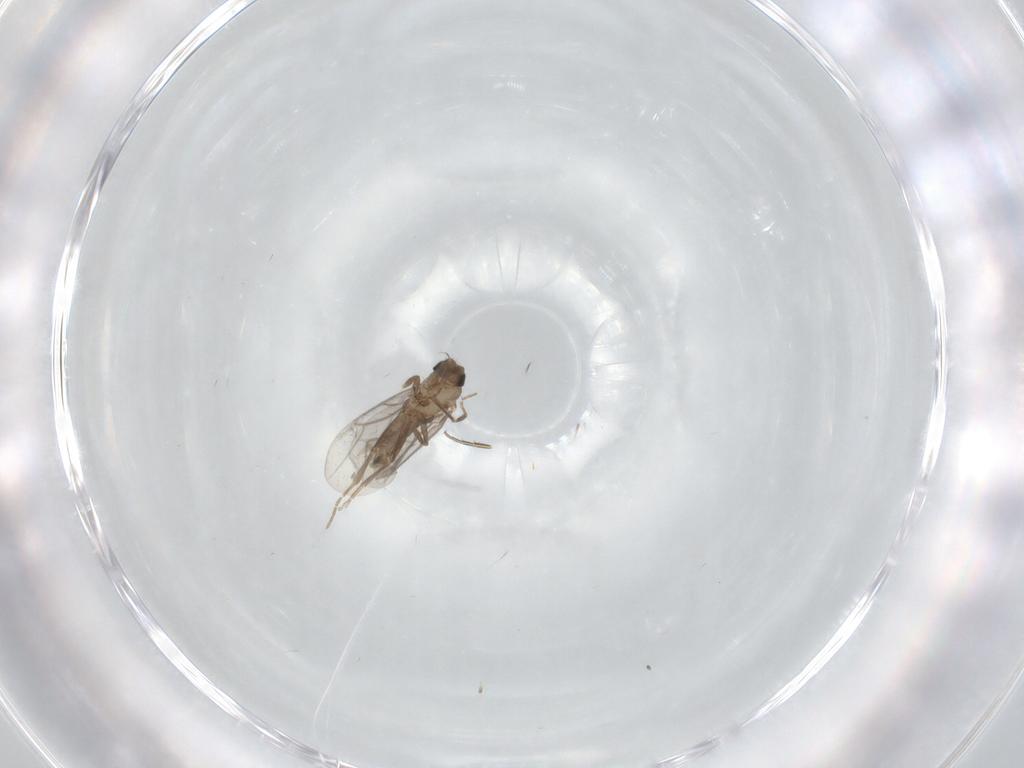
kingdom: Animalia
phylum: Arthropoda
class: Insecta
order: Diptera
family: Phoridae
